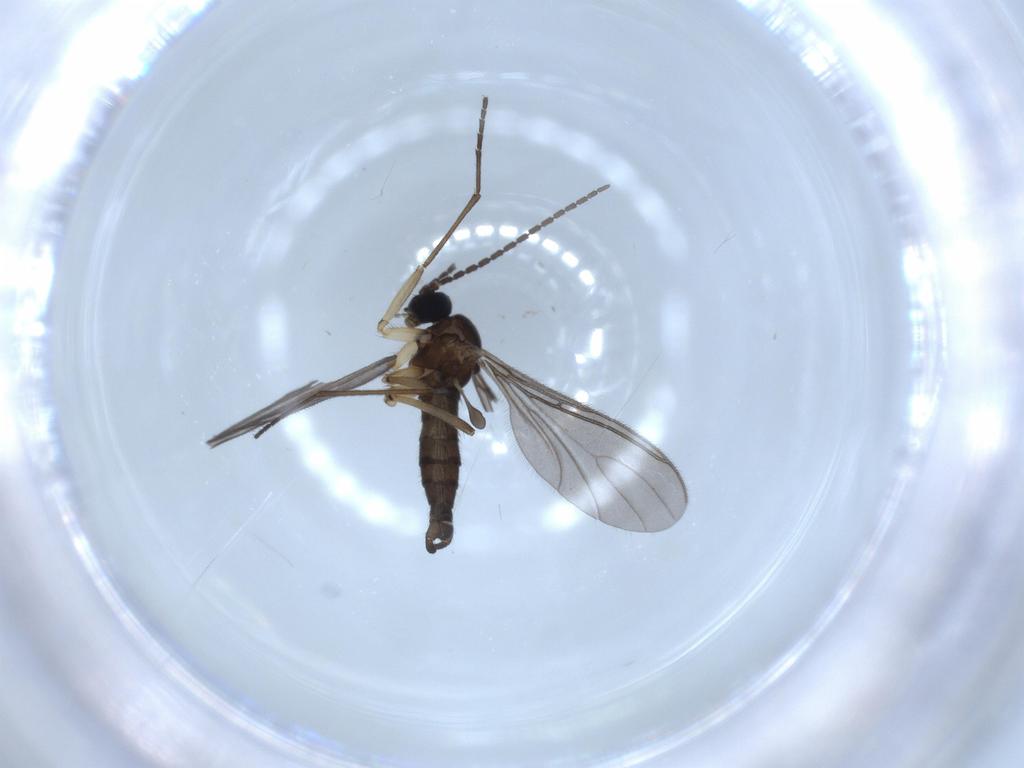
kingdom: Animalia
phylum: Arthropoda
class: Insecta
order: Diptera
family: Sciaridae
